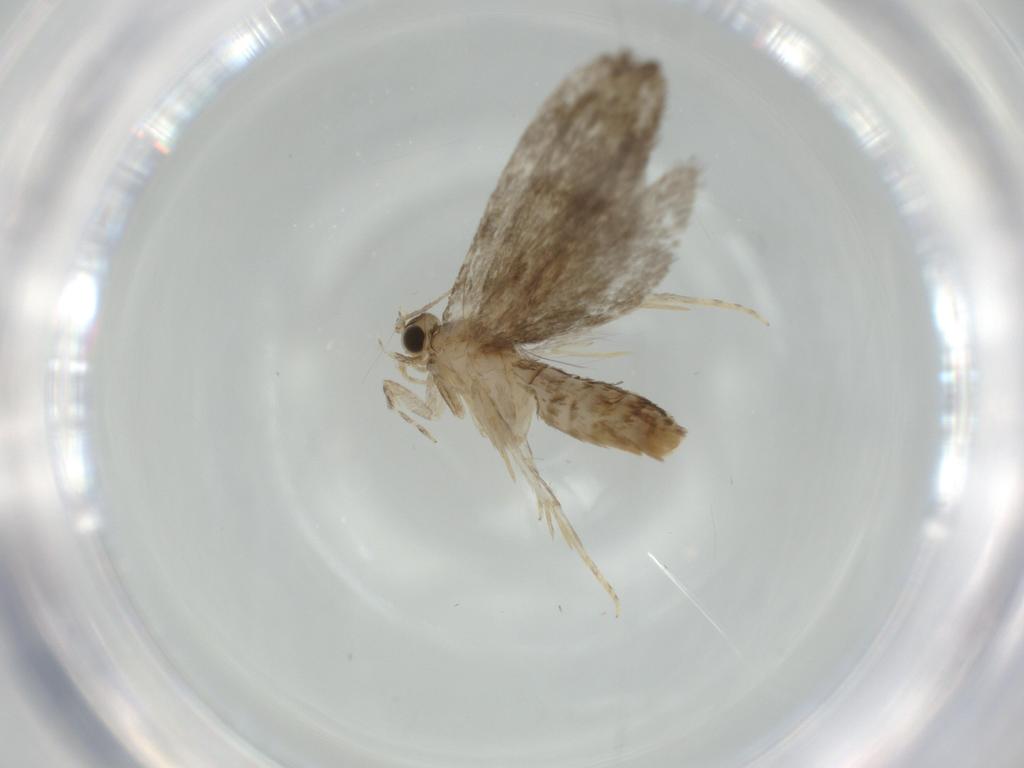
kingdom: Animalia
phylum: Arthropoda
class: Insecta
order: Lepidoptera
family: Tineidae
